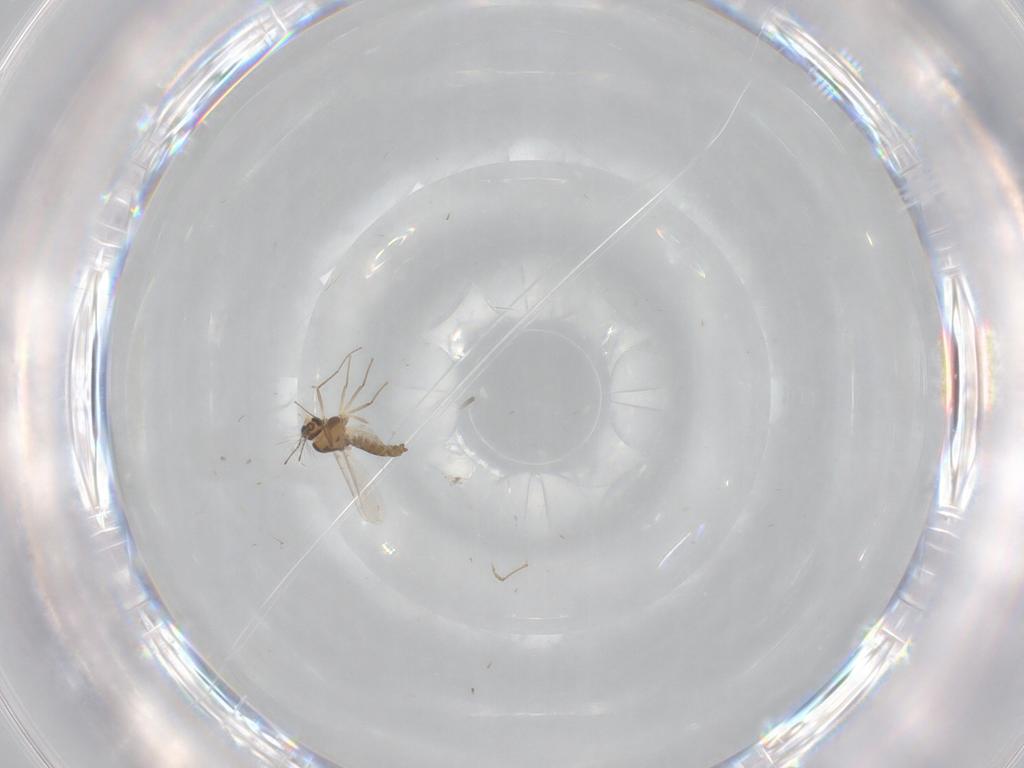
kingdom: Animalia
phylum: Arthropoda
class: Insecta
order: Diptera
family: Chironomidae
